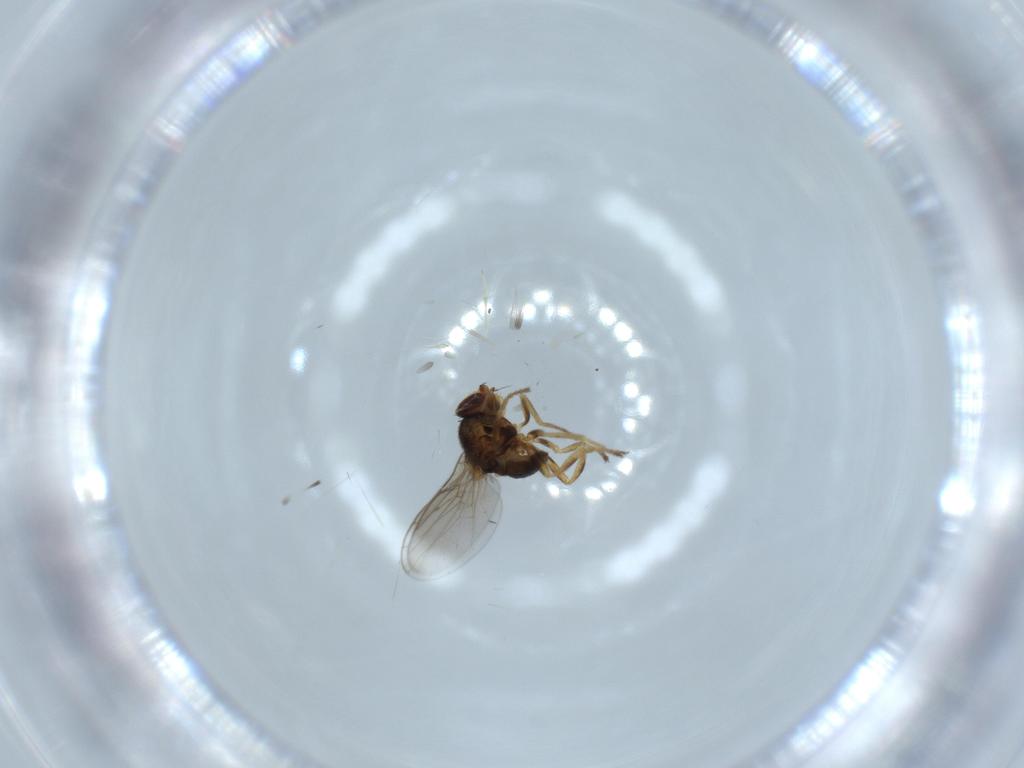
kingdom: Animalia
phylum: Arthropoda
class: Insecta
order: Diptera
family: Chloropidae
